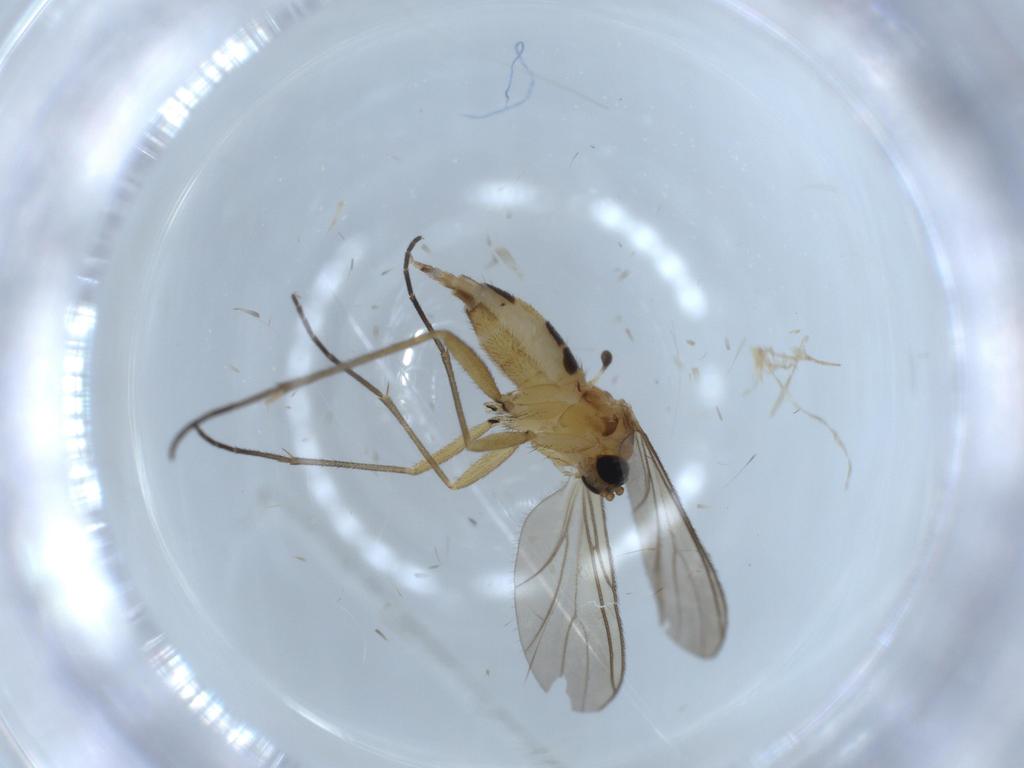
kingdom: Animalia
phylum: Arthropoda
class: Insecta
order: Diptera
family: Sciaridae
